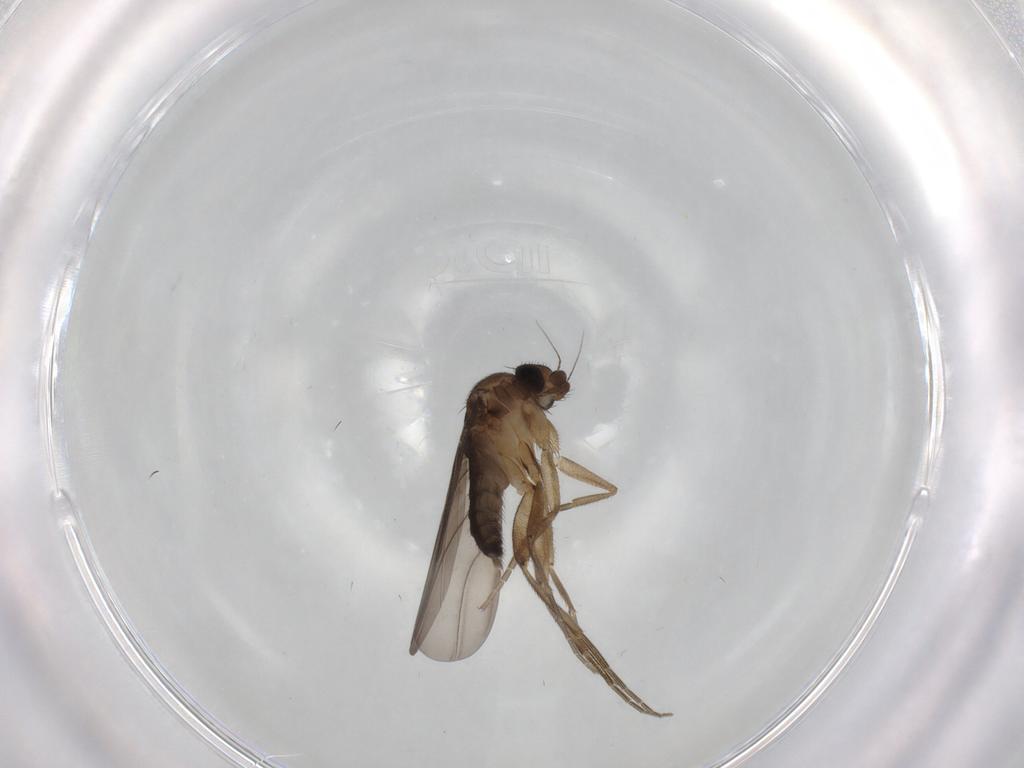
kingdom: Animalia
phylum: Arthropoda
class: Insecta
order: Diptera
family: Phoridae
